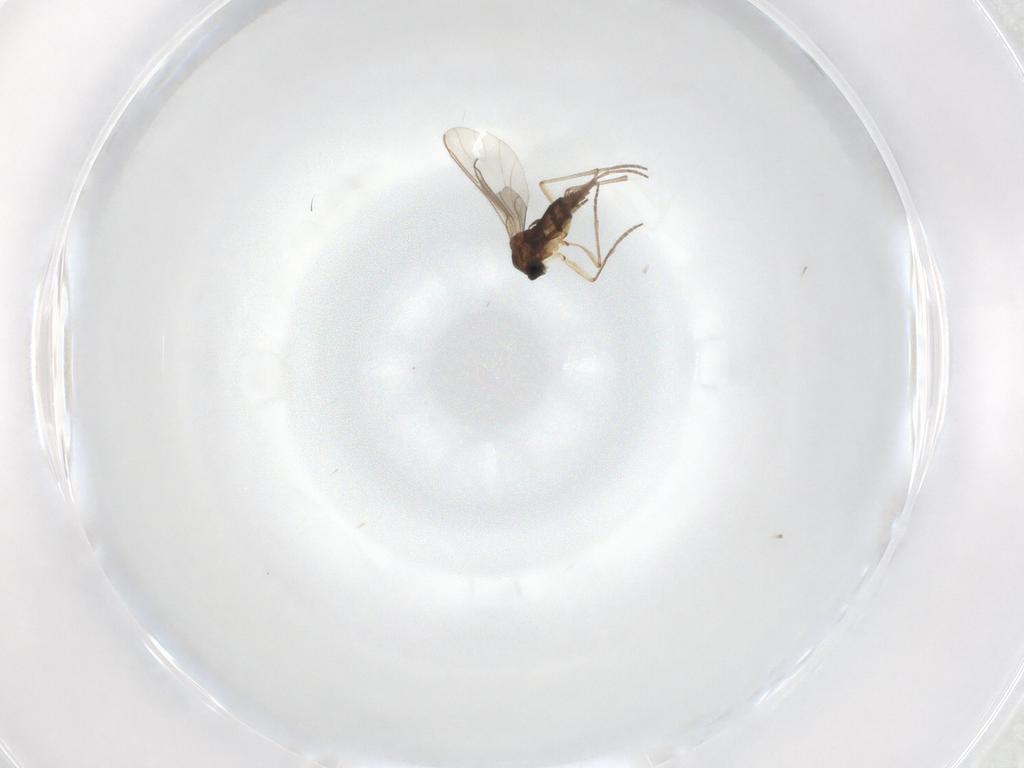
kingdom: Animalia
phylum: Arthropoda
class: Insecta
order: Diptera
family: Sciaridae
